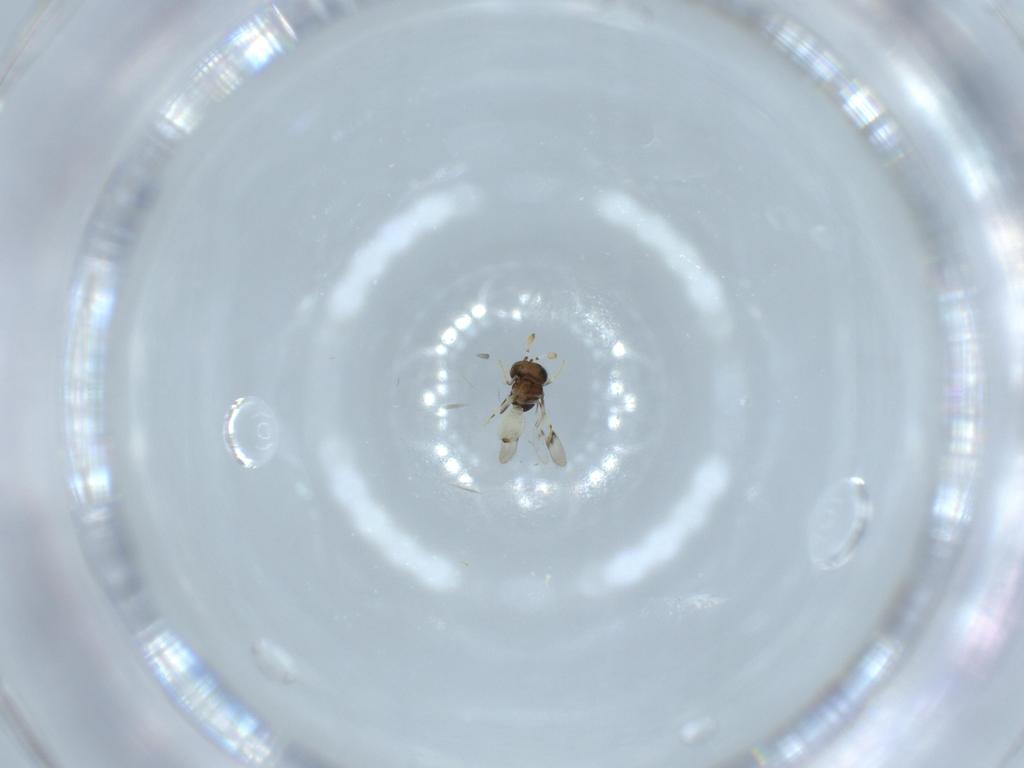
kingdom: Animalia
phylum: Arthropoda
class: Insecta
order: Hymenoptera
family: Scelionidae
